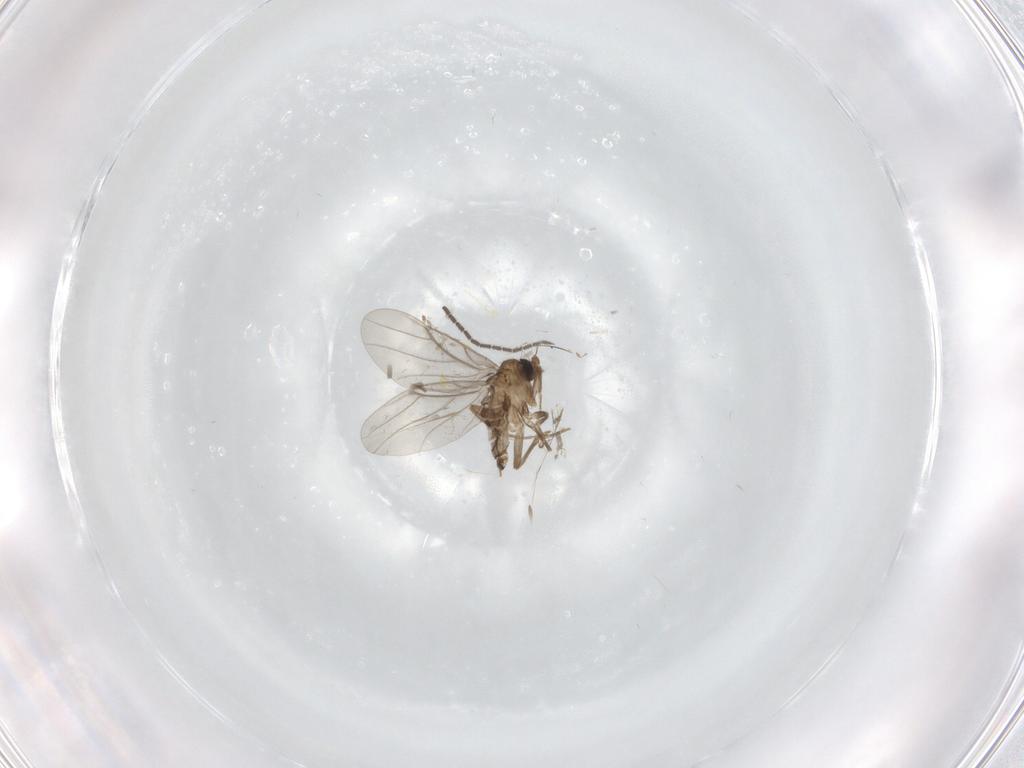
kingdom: Animalia
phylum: Arthropoda
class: Insecta
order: Diptera
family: Sciaridae
